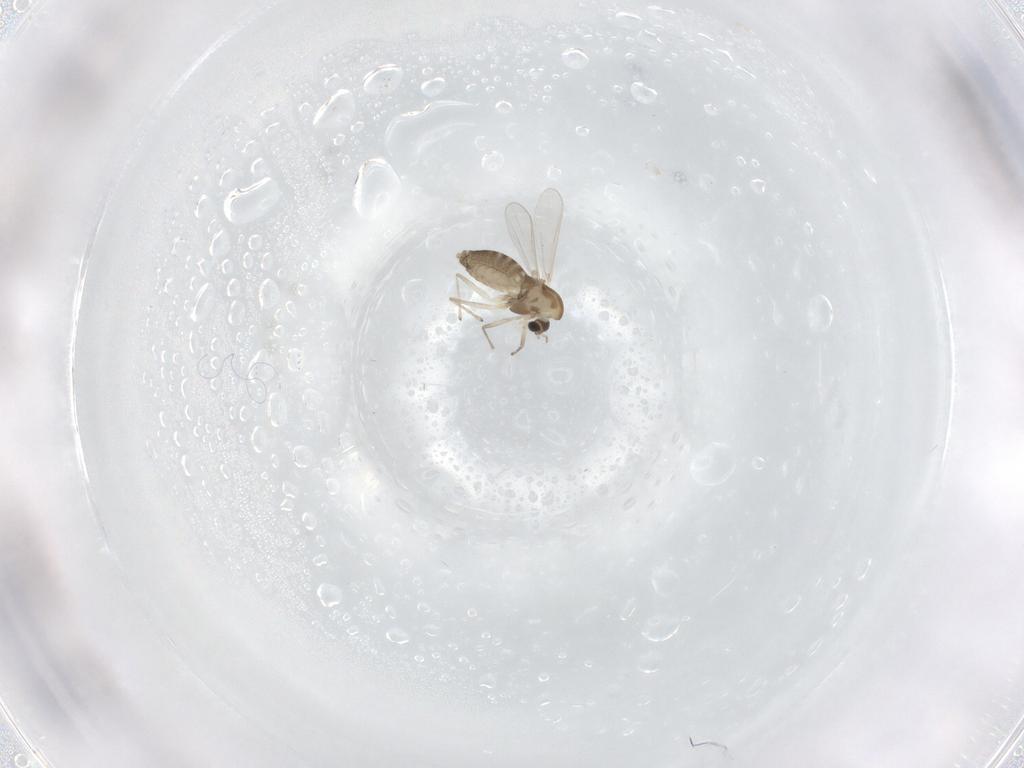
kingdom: Animalia
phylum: Arthropoda
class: Insecta
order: Diptera
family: Chironomidae
